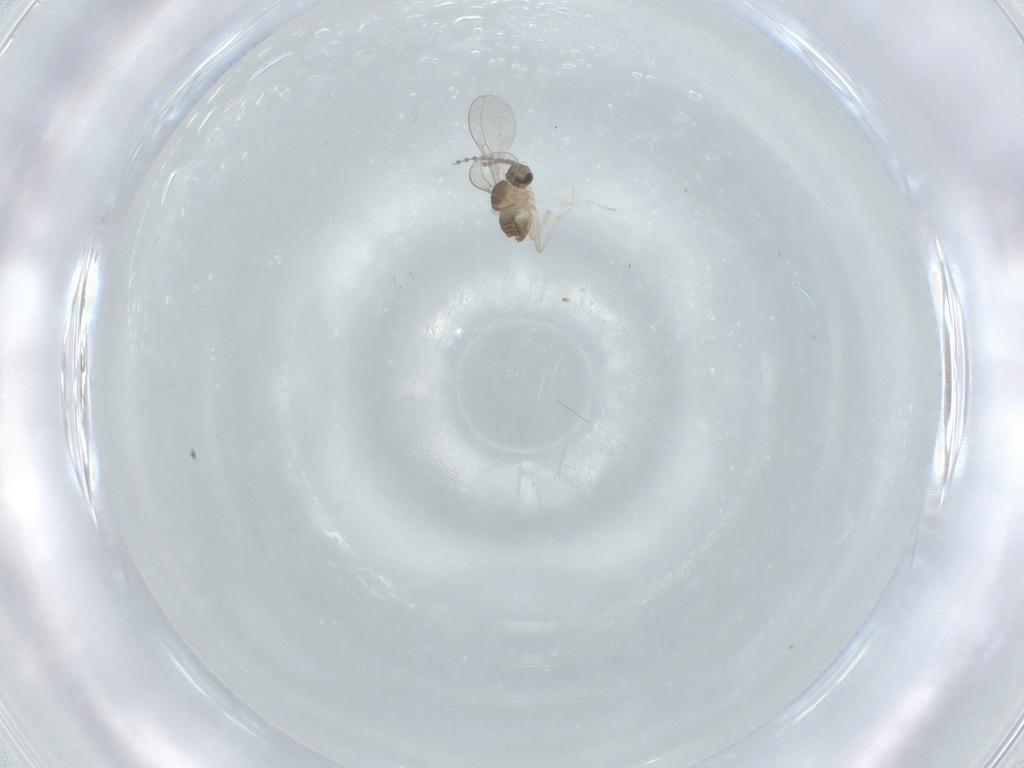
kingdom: Animalia
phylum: Arthropoda
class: Insecta
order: Diptera
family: Cecidomyiidae
